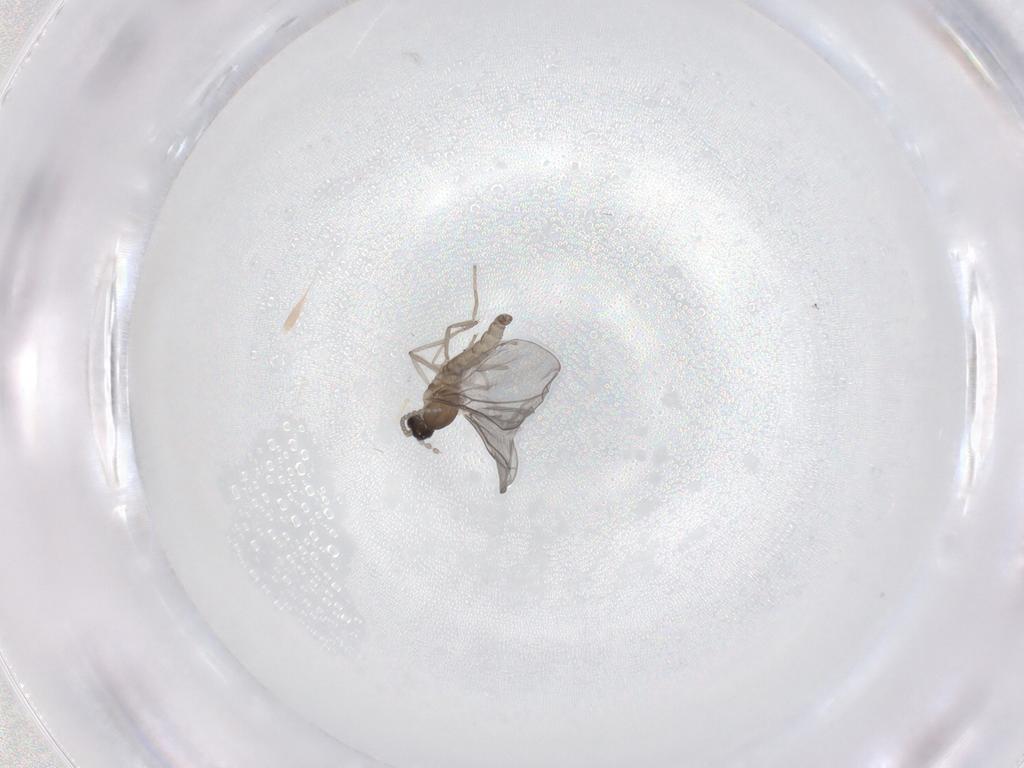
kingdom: Animalia
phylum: Arthropoda
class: Insecta
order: Diptera
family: Cecidomyiidae
